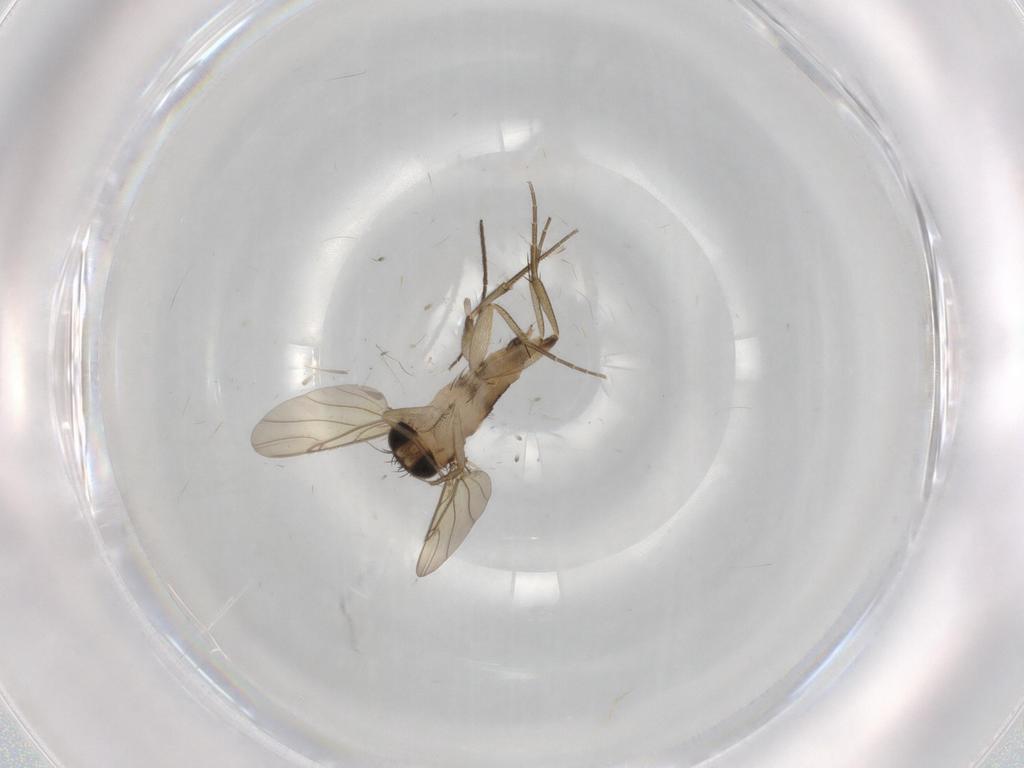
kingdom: Animalia
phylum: Arthropoda
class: Insecta
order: Diptera
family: Phoridae
